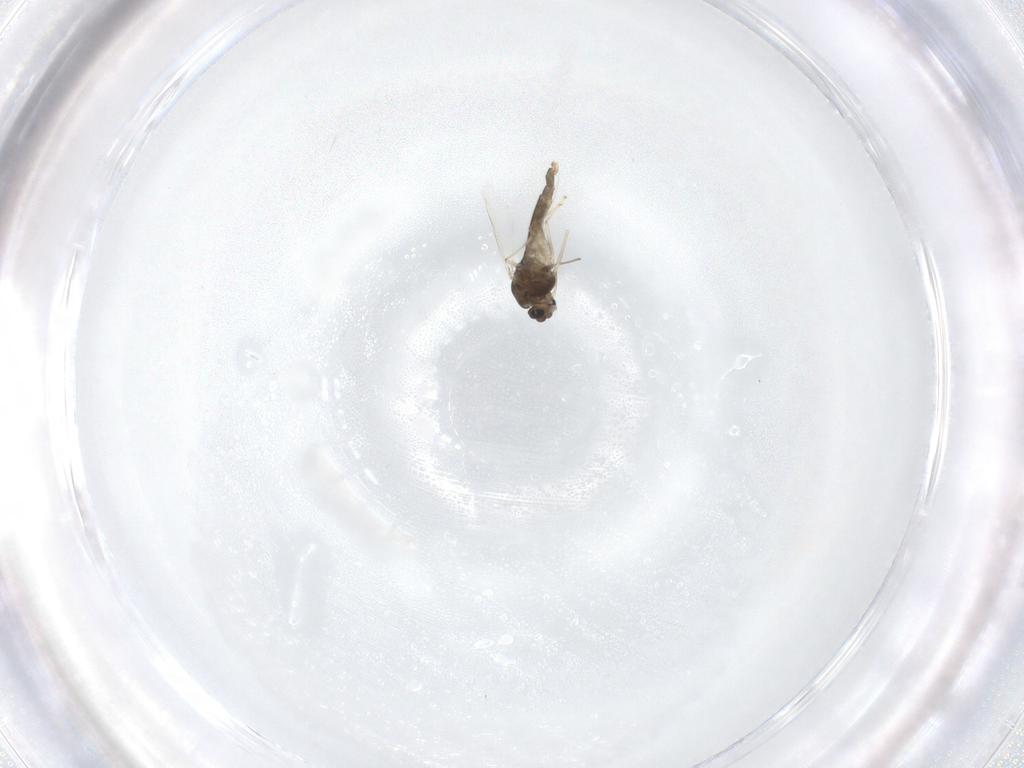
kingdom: Animalia
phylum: Arthropoda
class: Insecta
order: Diptera
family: Chironomidae
